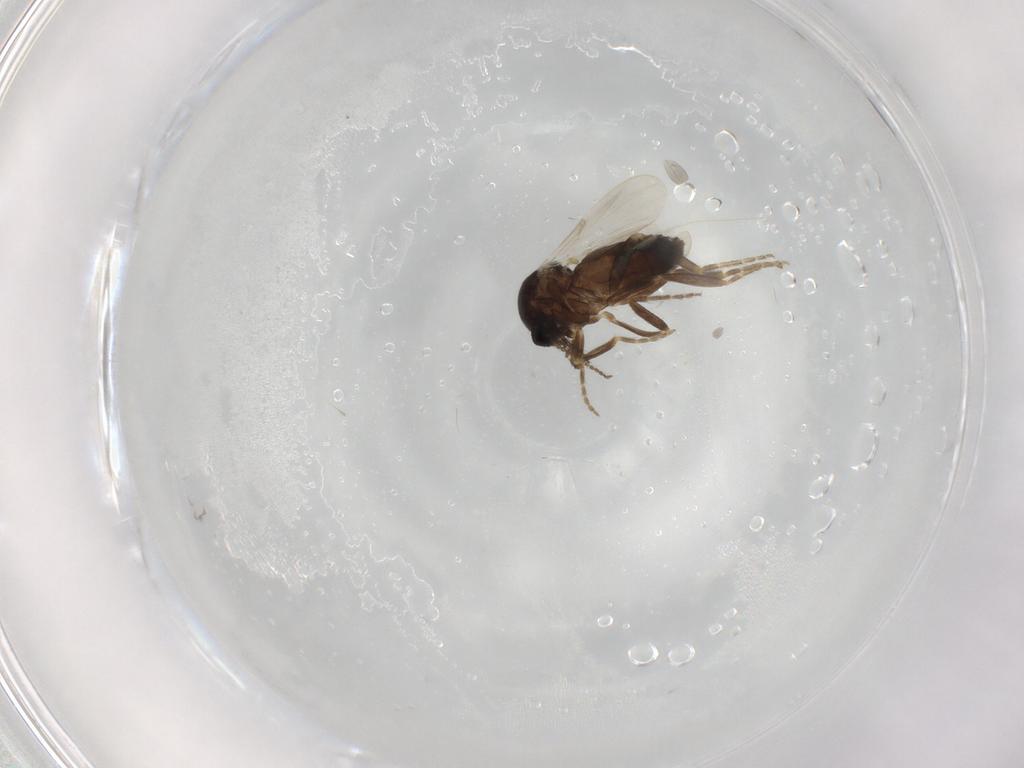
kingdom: Animalia
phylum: Arthropoda
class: Insecta
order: Diptera
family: Ceratopogonidae
